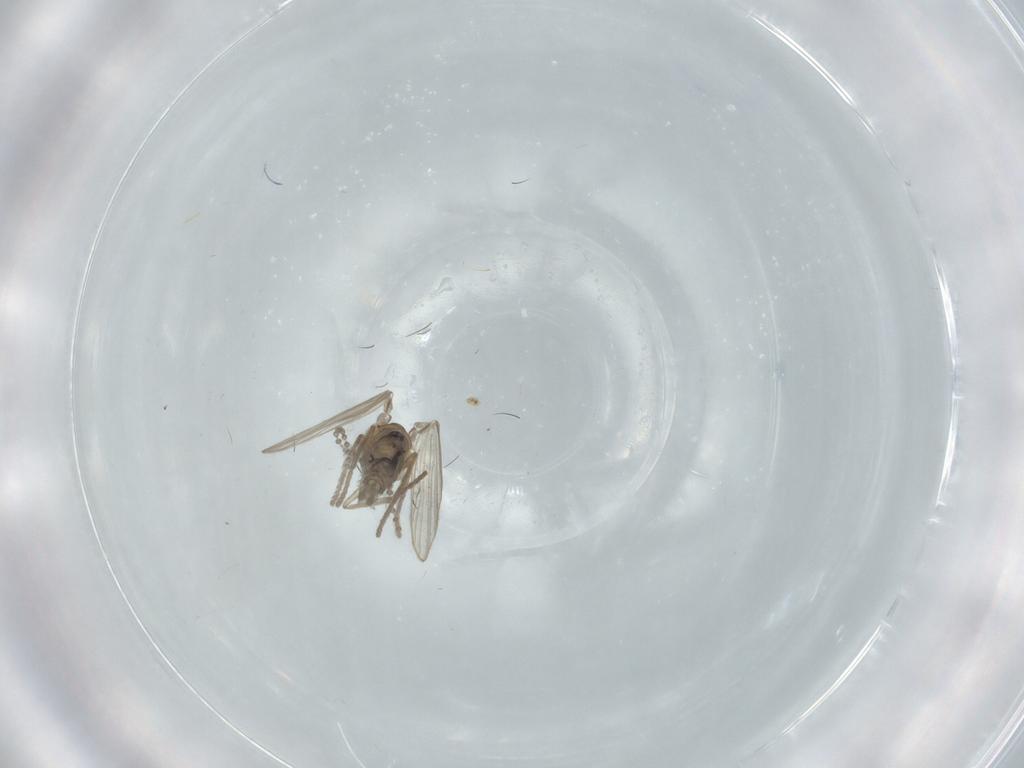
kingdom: Animalia
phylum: Arthropoda
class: Insecta
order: Diptera
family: Psychodidae
